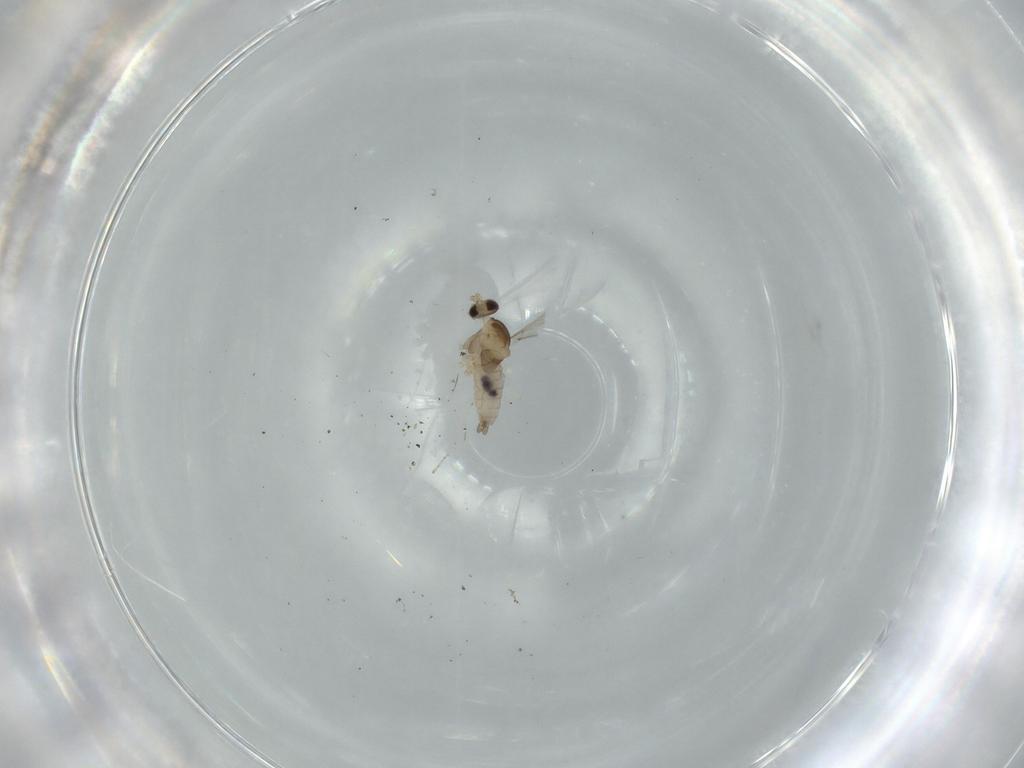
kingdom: Animalia
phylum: Arthropoda
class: Insecta
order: Diptera
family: Cecidomyiidae
